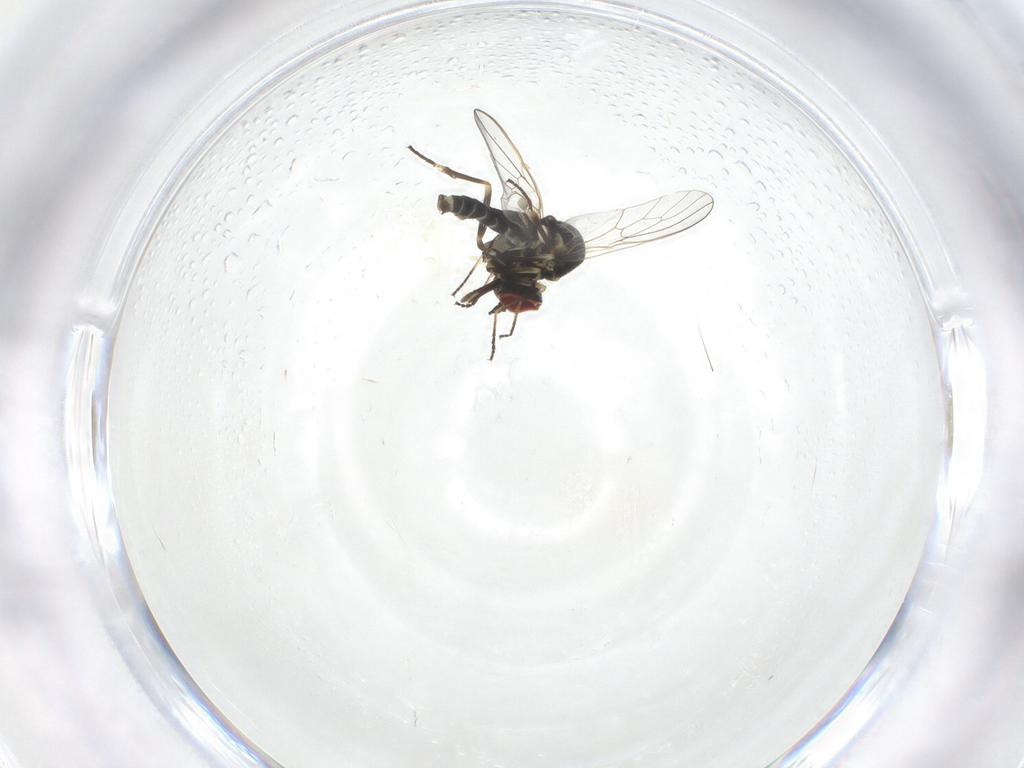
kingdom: Animalia
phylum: Arthropoda
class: Insecta
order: Diptera
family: Bombyliidae
